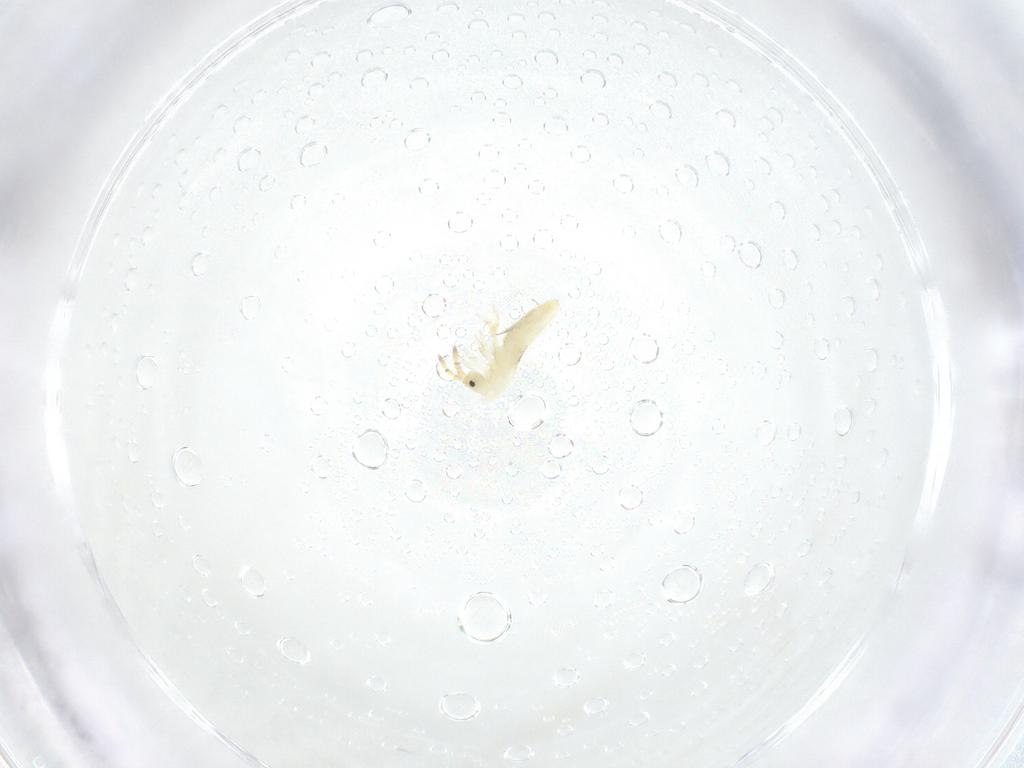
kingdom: Animalia
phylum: Arthropoda
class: Collembola
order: Entomobryomorpha
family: Entomobryidae
